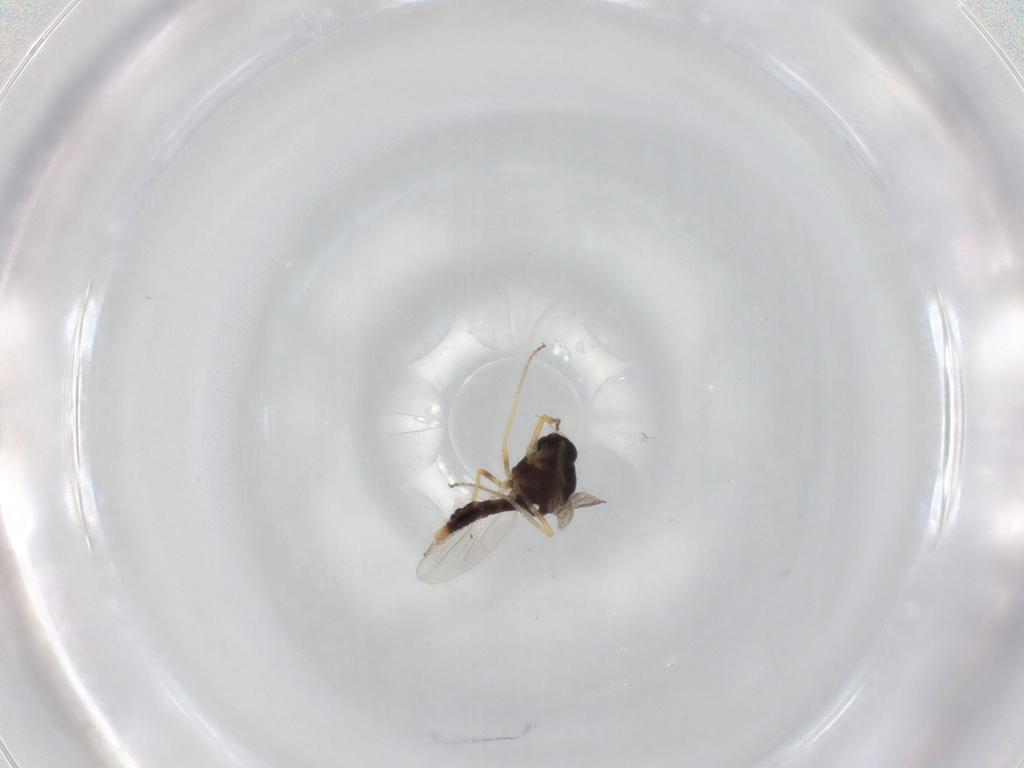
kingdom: Animalia
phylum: Arthropoda
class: Insecta
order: Diptera
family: Ceratopogonidae
